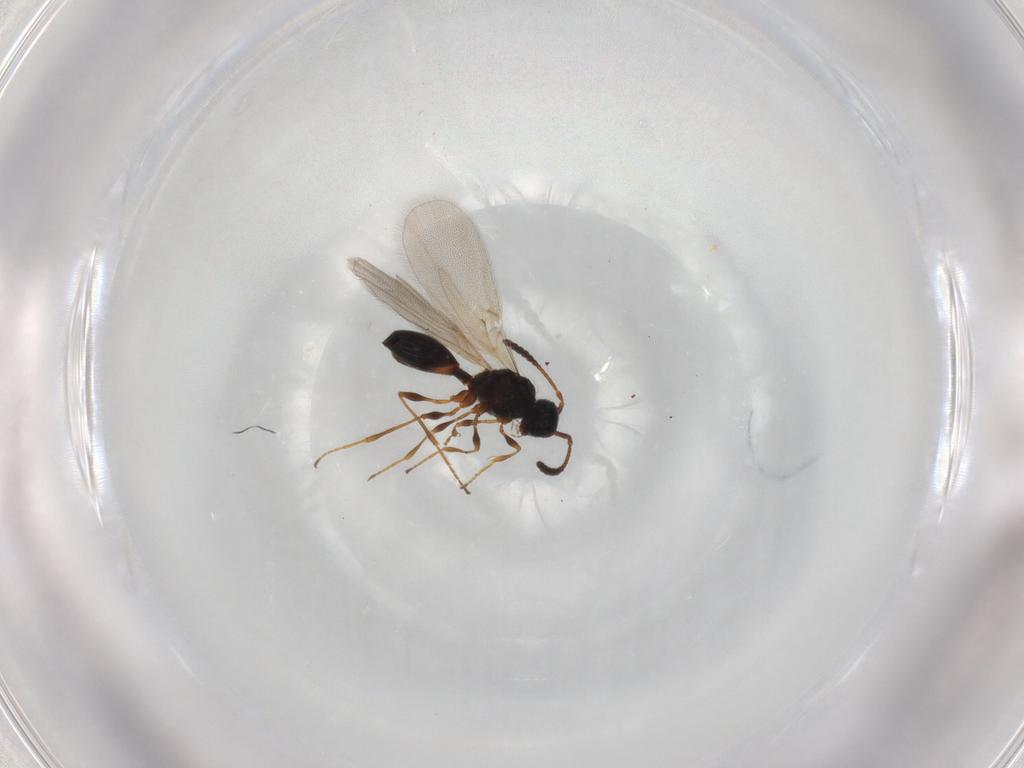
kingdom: Animalia
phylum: Arthropoda
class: Insecta
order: Hymenoptera
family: Diapriidae
